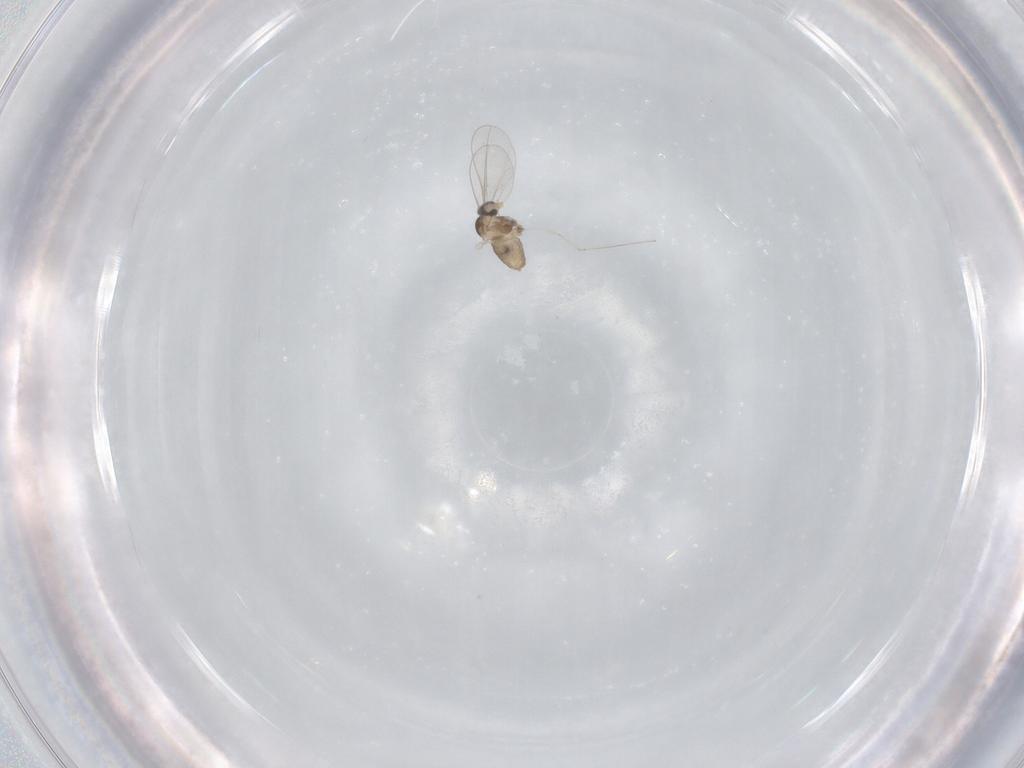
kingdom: Animalia
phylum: Arthropoda
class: Insecta
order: Diptera
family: Cecidomyiidae
